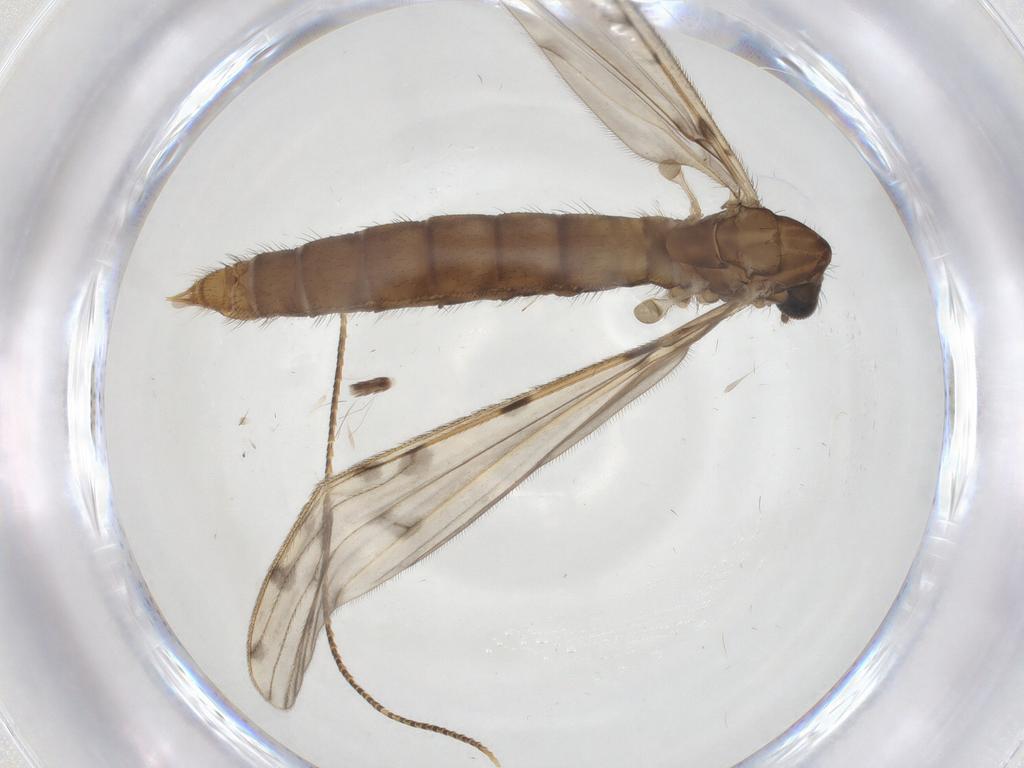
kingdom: Animalia
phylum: Arthropoda
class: Insecta
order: Diptera
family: Limoniidae
